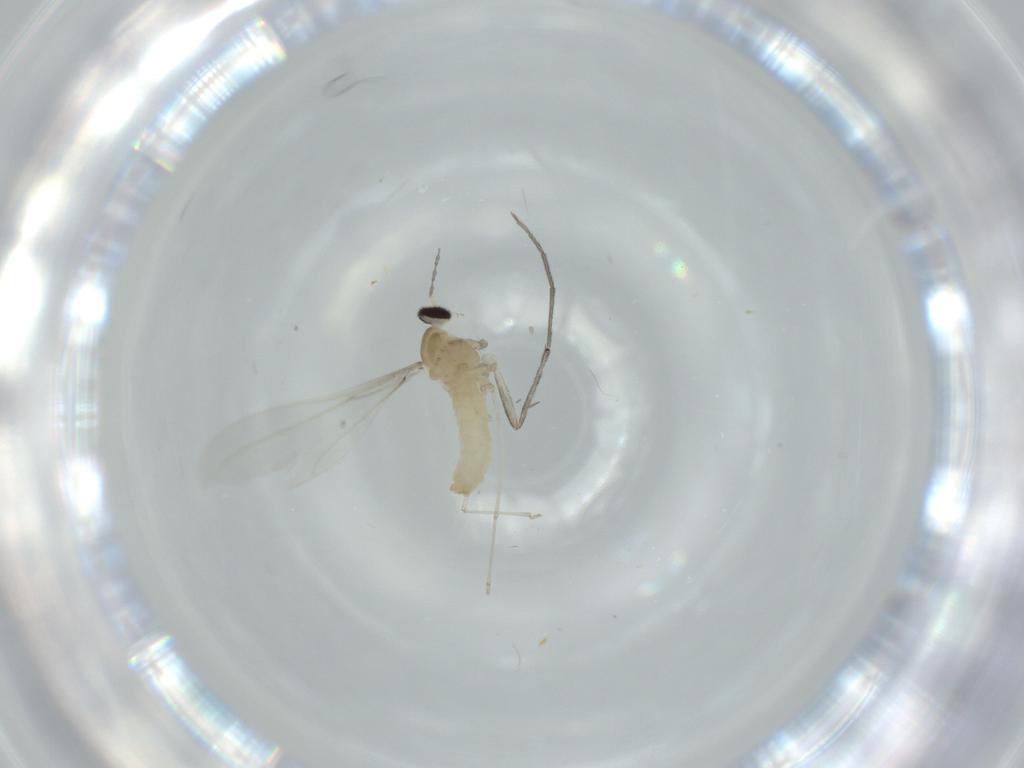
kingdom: Animalia
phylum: Arthropoda
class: Insecta
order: Diptera
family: Cecidomyiidae
